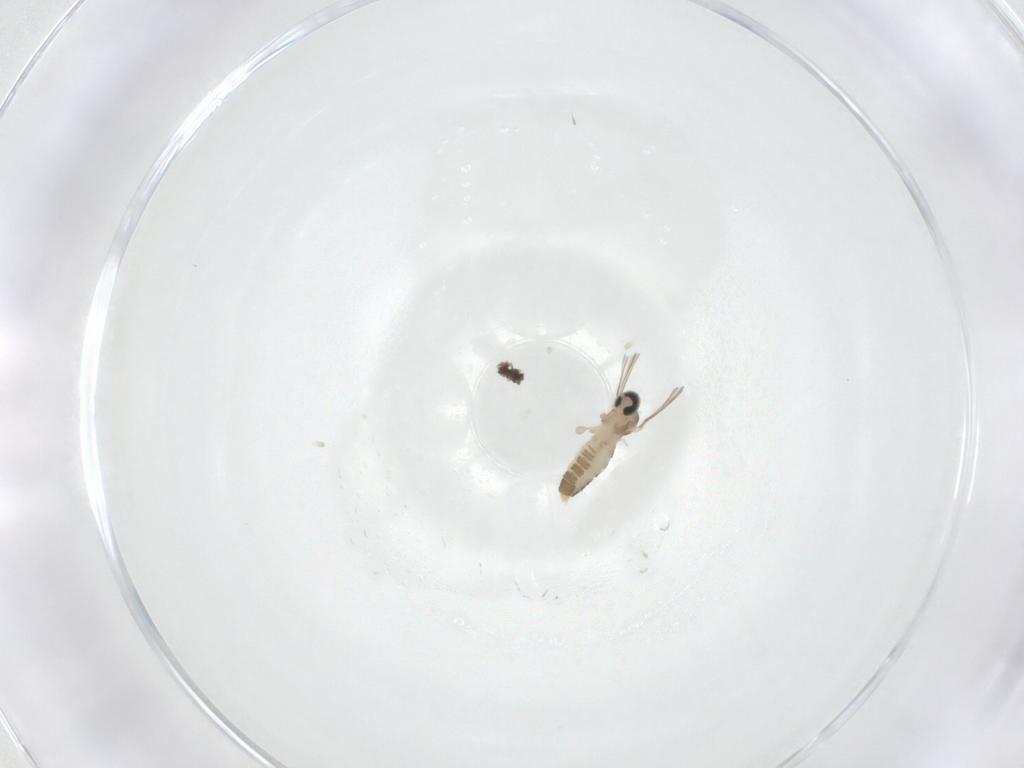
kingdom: Animalia
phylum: Arthropoda
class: Insecta
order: Diptera
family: Cecidomyiidae
